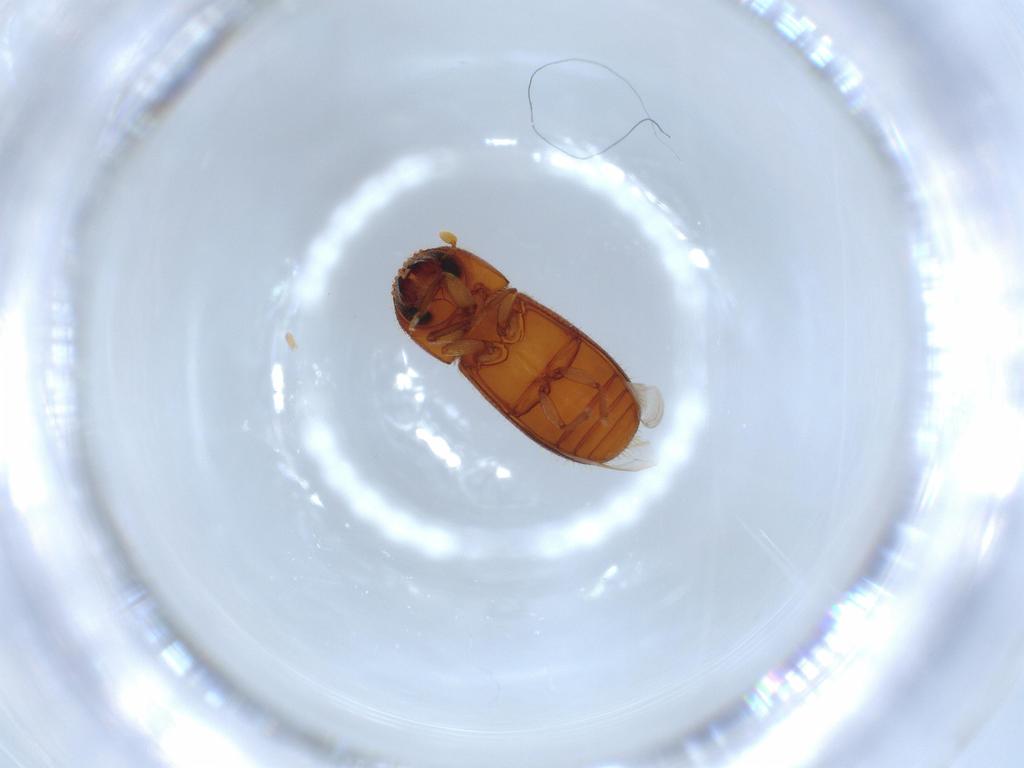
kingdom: Animalia
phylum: Arthropoda
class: Insecta
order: Coleoptera
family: Curculionidae
